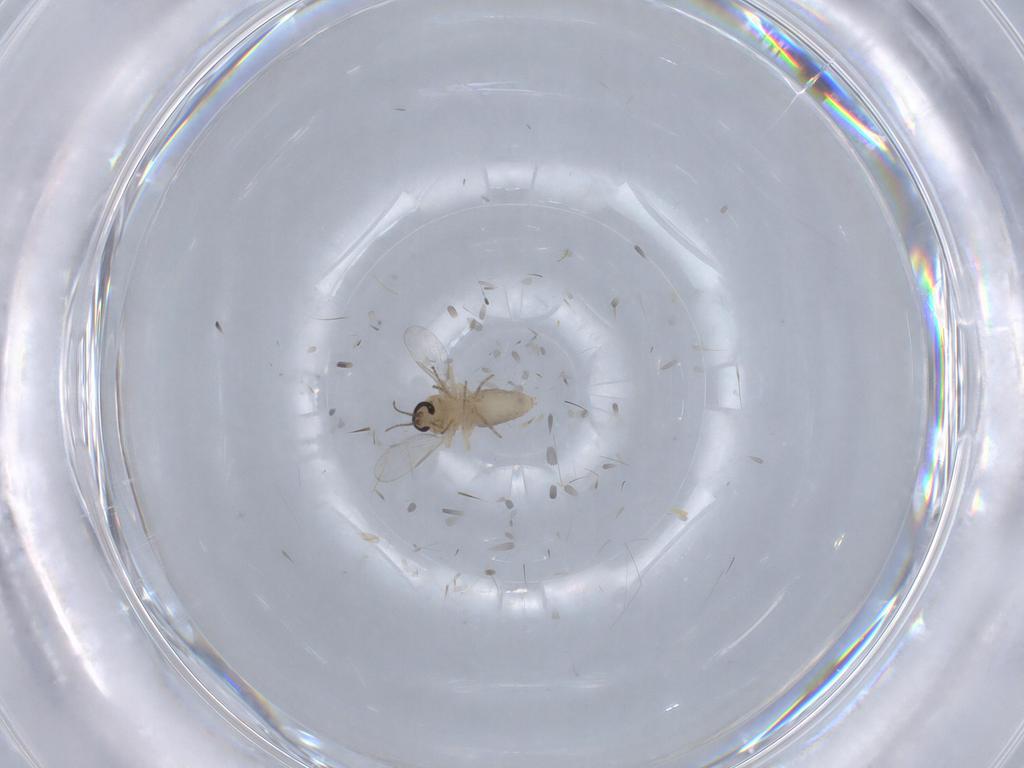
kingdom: Animalia
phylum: Arthropoda
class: Insecta
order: Diptera
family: Ceratopogonidae
